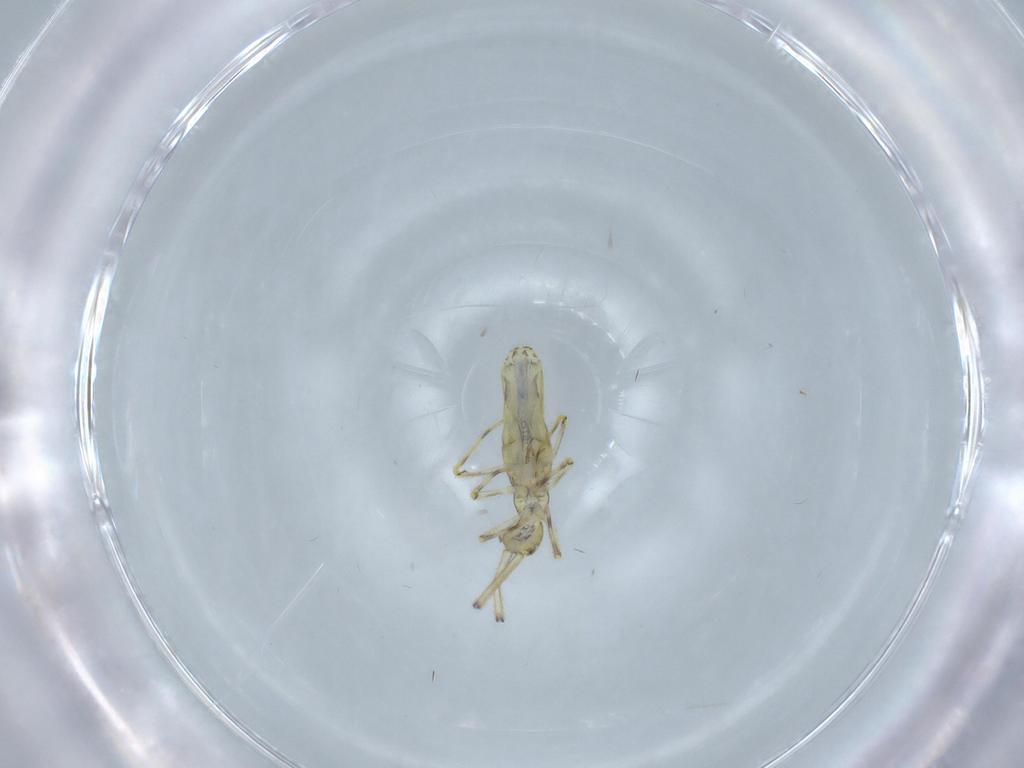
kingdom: Animalia
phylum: Arthropoda
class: Collembola
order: Entomobryomorpha
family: Paronellidae
